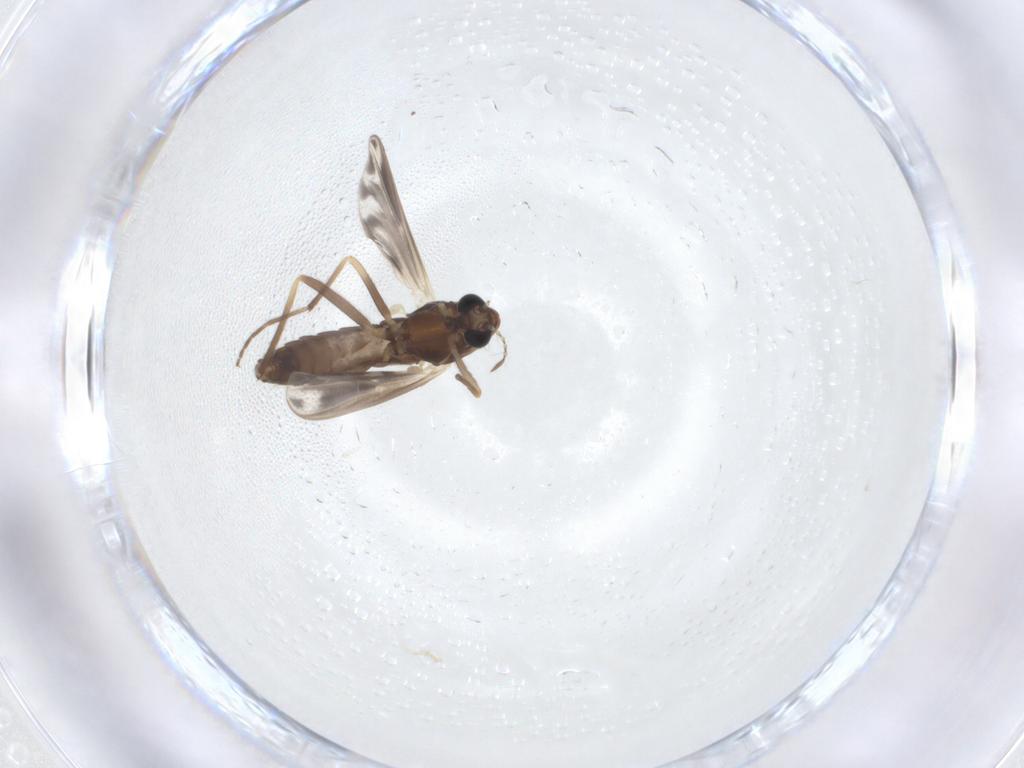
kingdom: Animalia
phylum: Arthropoda
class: Insecta
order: Diptera
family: Chironomidae
